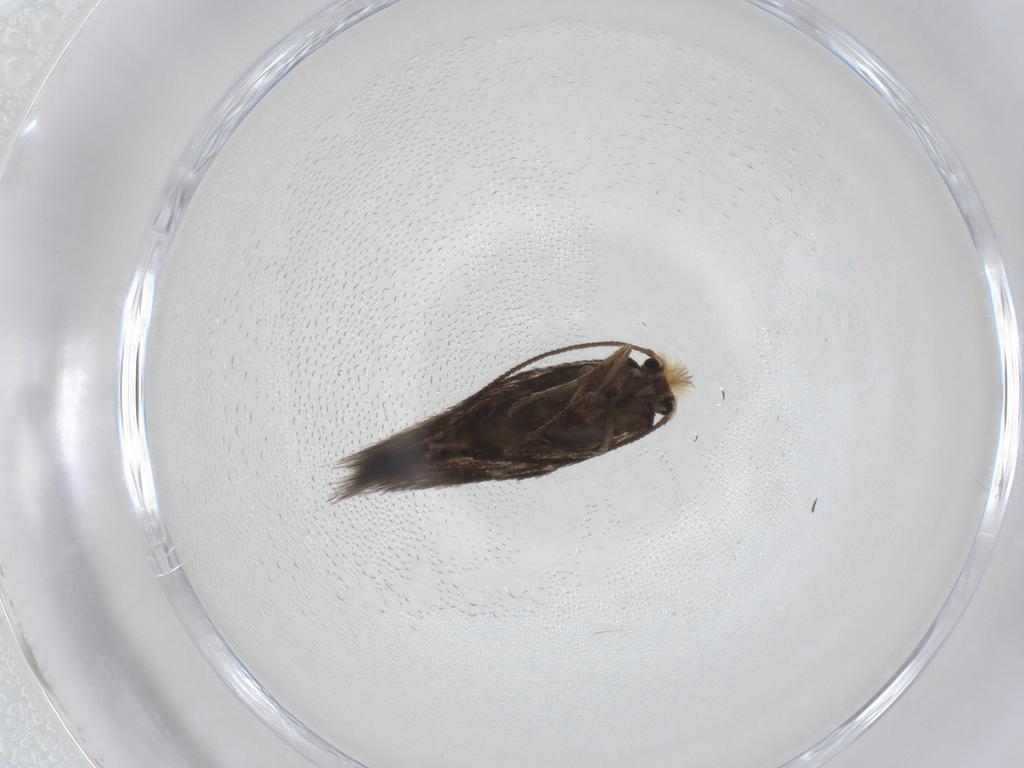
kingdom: Animalia
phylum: Arthropoda
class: Insecta
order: Lepidoptera
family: Nepticulidae
